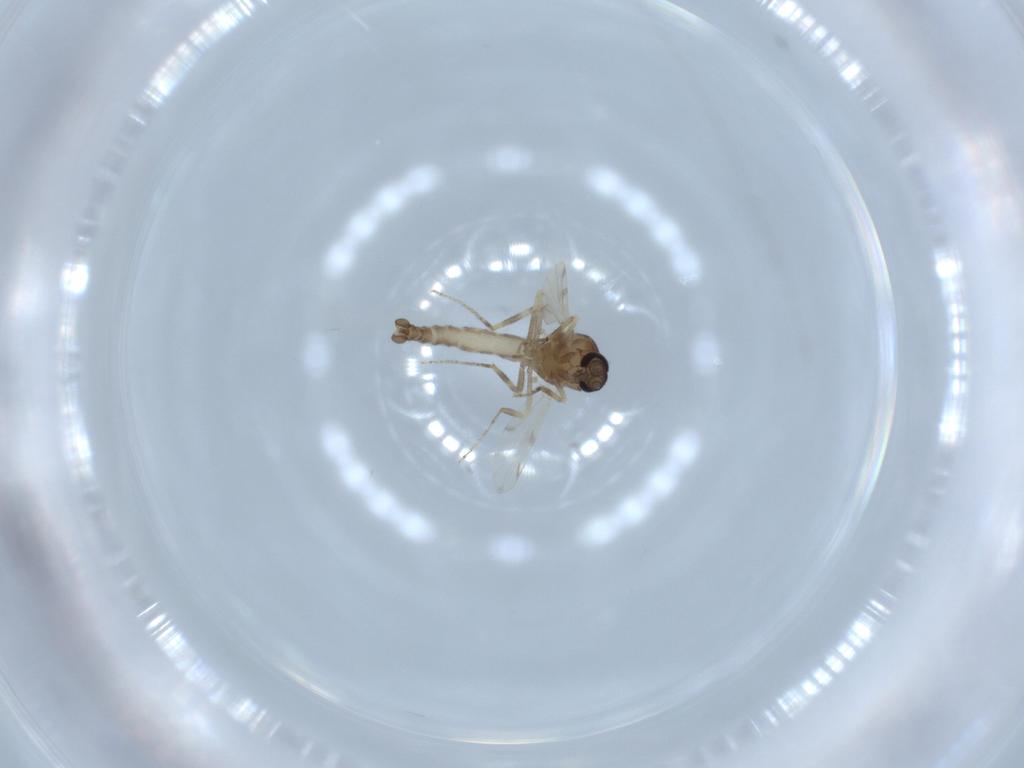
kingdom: Animalia
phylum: Arthropoda
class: Insecta
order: Diptera
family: Ceratopogonidae
